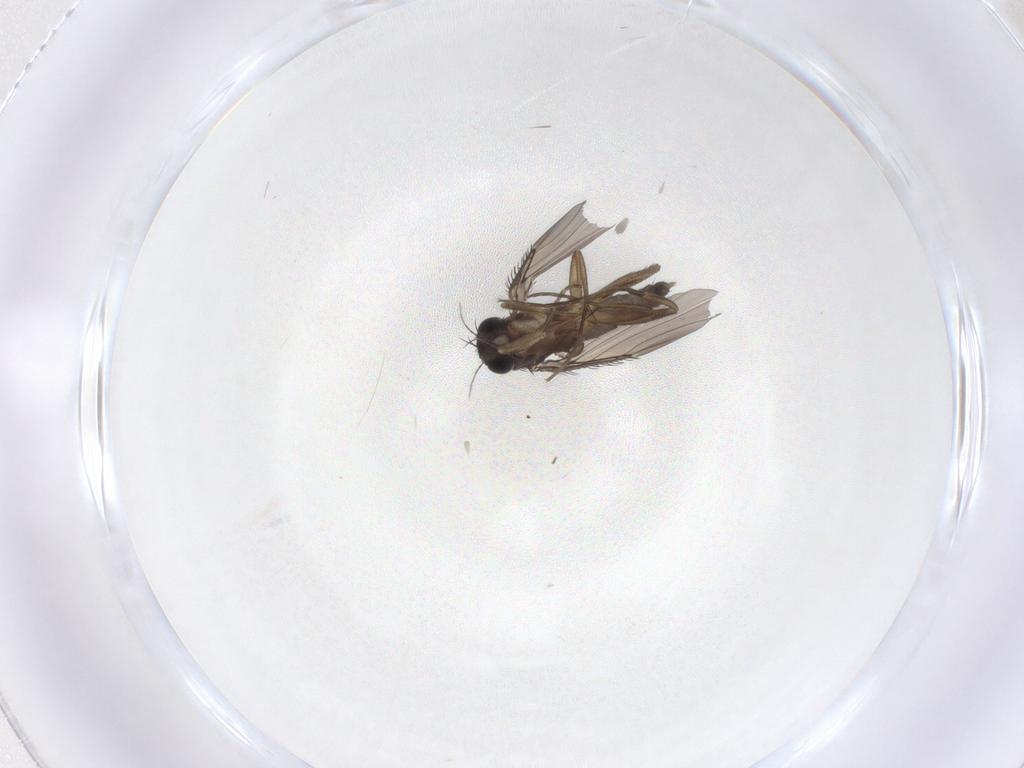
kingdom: Animalia
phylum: Arthropoda
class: Insecta
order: Diptera
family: Phoridae
